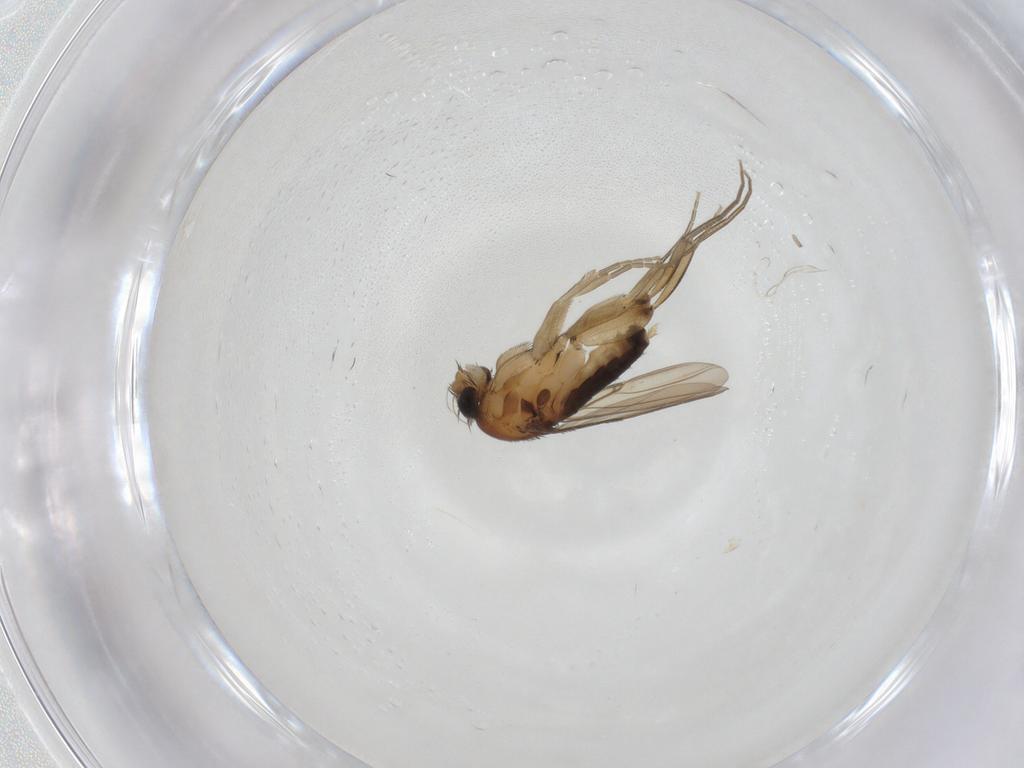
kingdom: Animalia
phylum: Arthropoda
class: Insecta
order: Diptera
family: Phoridae
